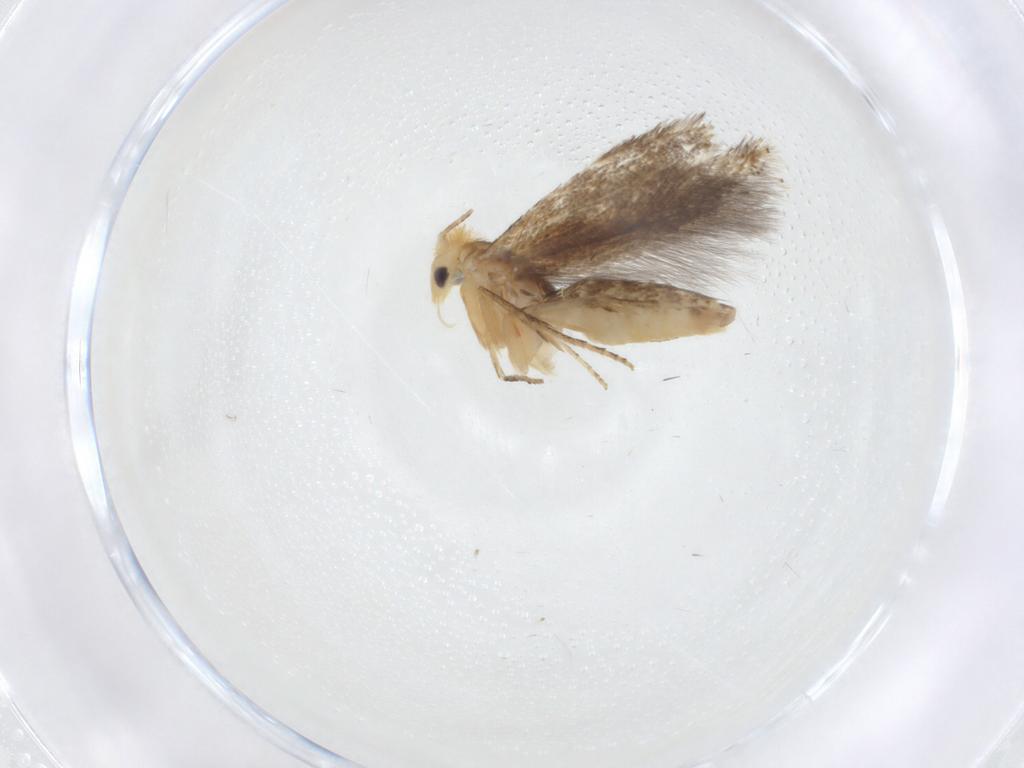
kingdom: Animalia
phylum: Arthropoda
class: Insecta
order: Lepidoptera
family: Bucculatricidae
